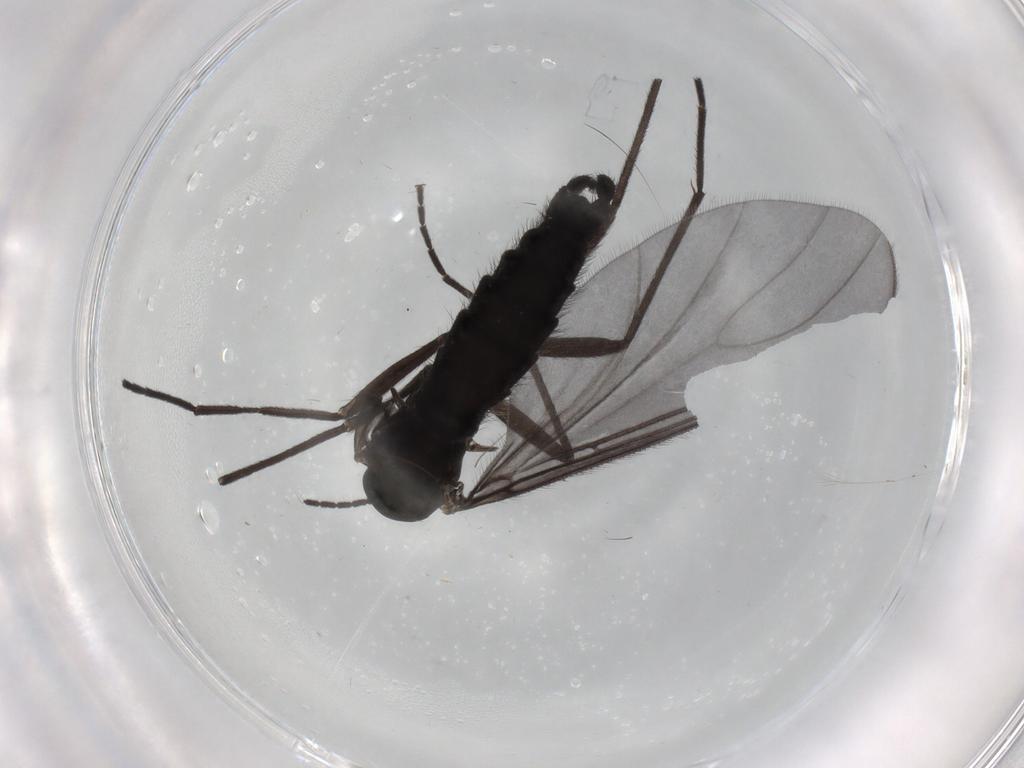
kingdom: Animalia
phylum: Arthropoda
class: Insecta
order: Diptera
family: Sciaridae
